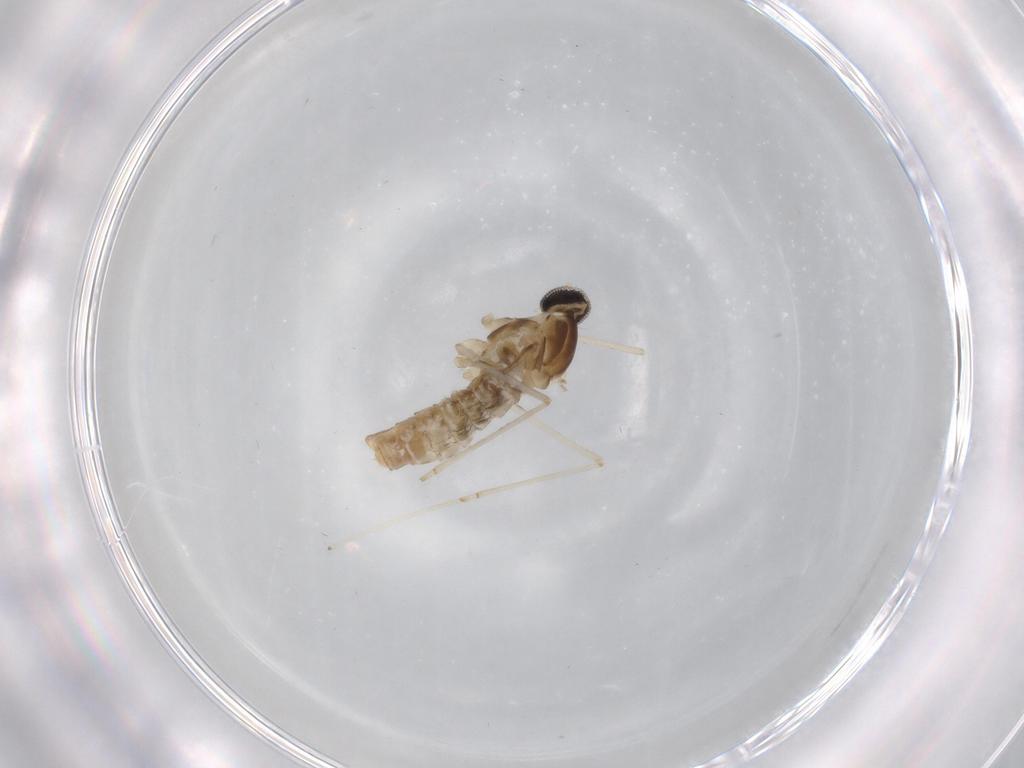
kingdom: Animalia
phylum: Arthropoda
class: Insecta
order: Diptera
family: Cecidomyiidae
